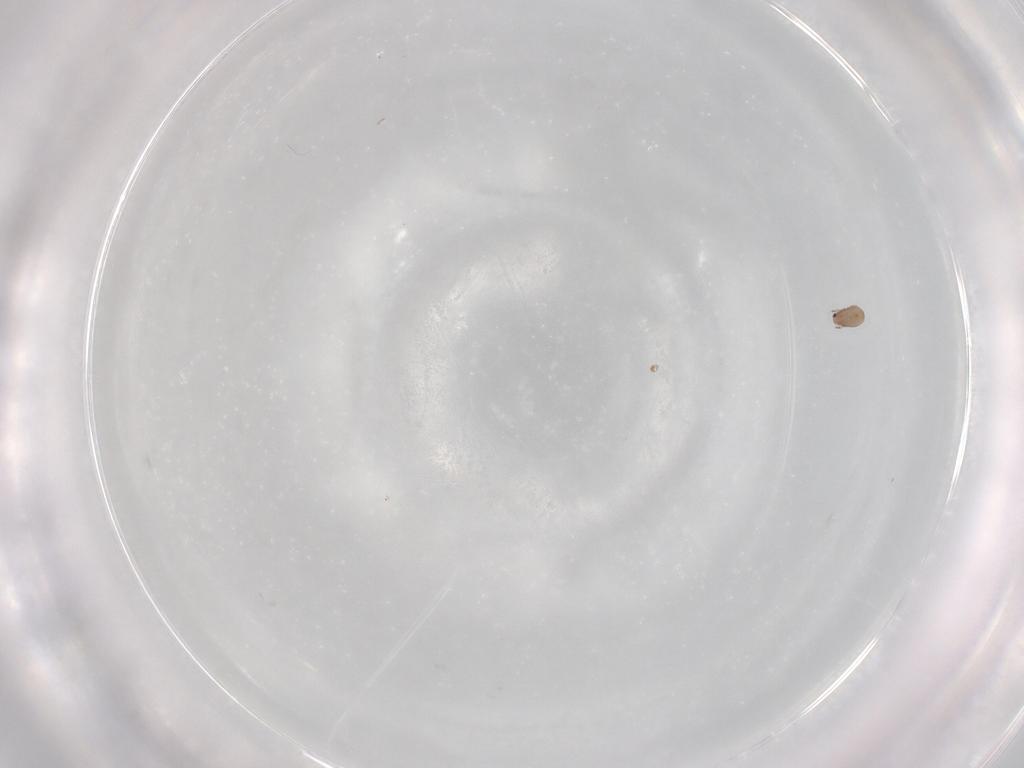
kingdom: Animalia
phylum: Arthropoda
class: Arachnida
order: Sarcoptiformes
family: Eremaeidae
